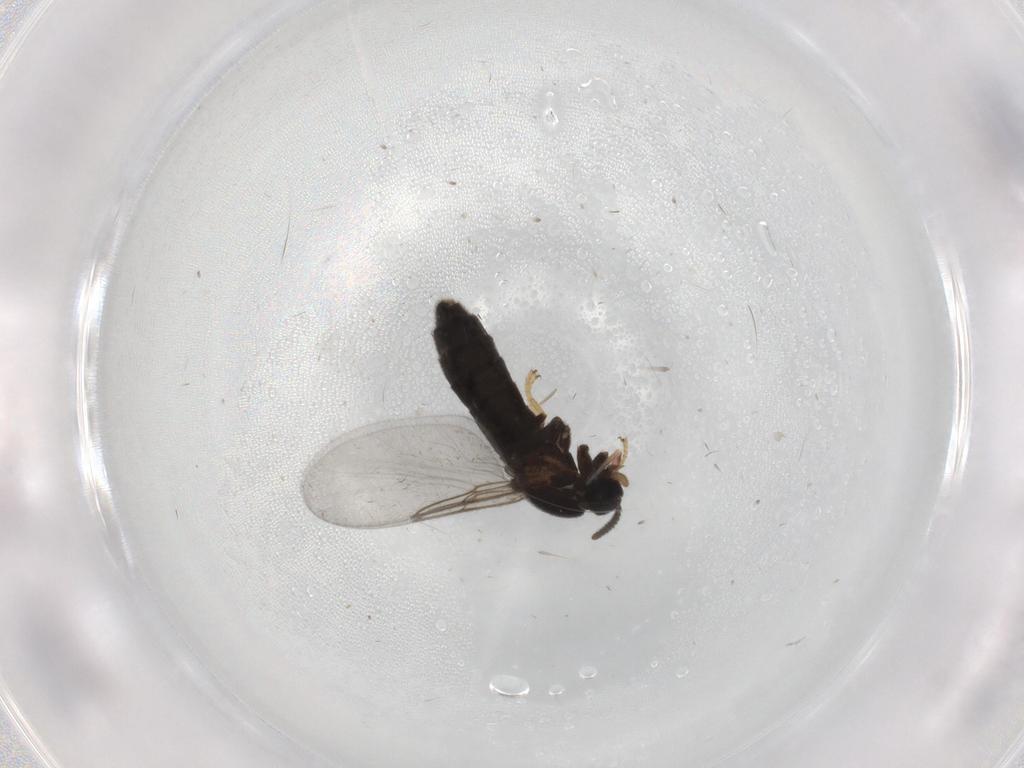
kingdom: Animalia
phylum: Arthropoda
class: Insecta
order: Diptera
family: Scatopsidae
